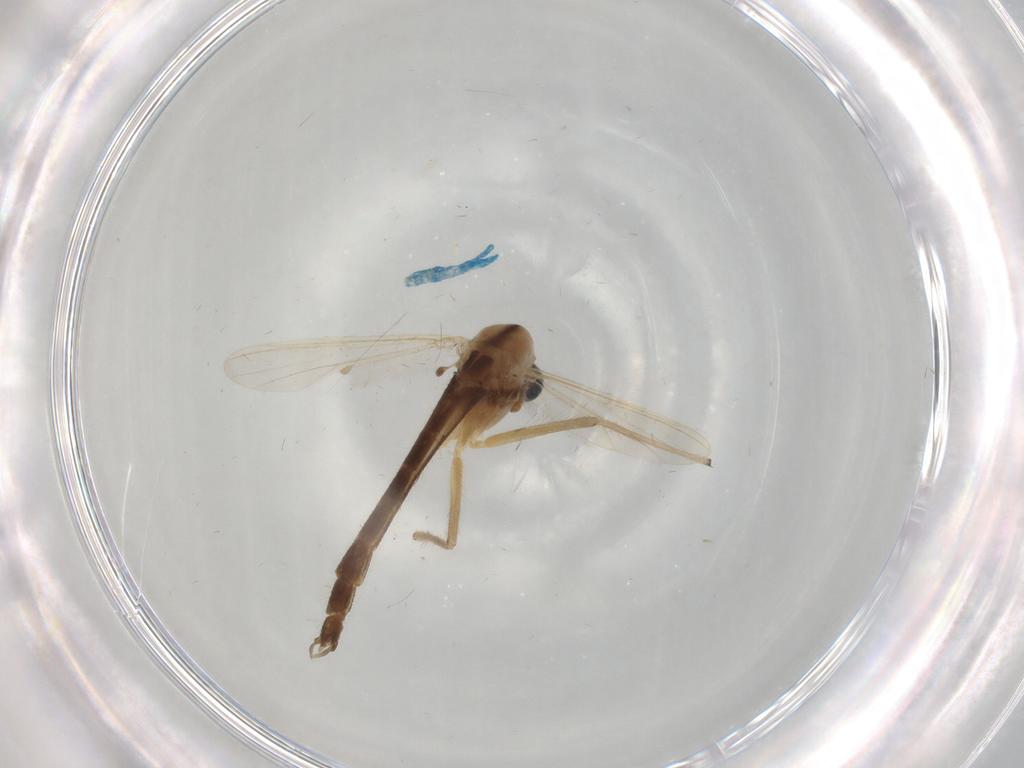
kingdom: Animalia
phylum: Arthropoda
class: Insecta
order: Diptera
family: Chironomidae
